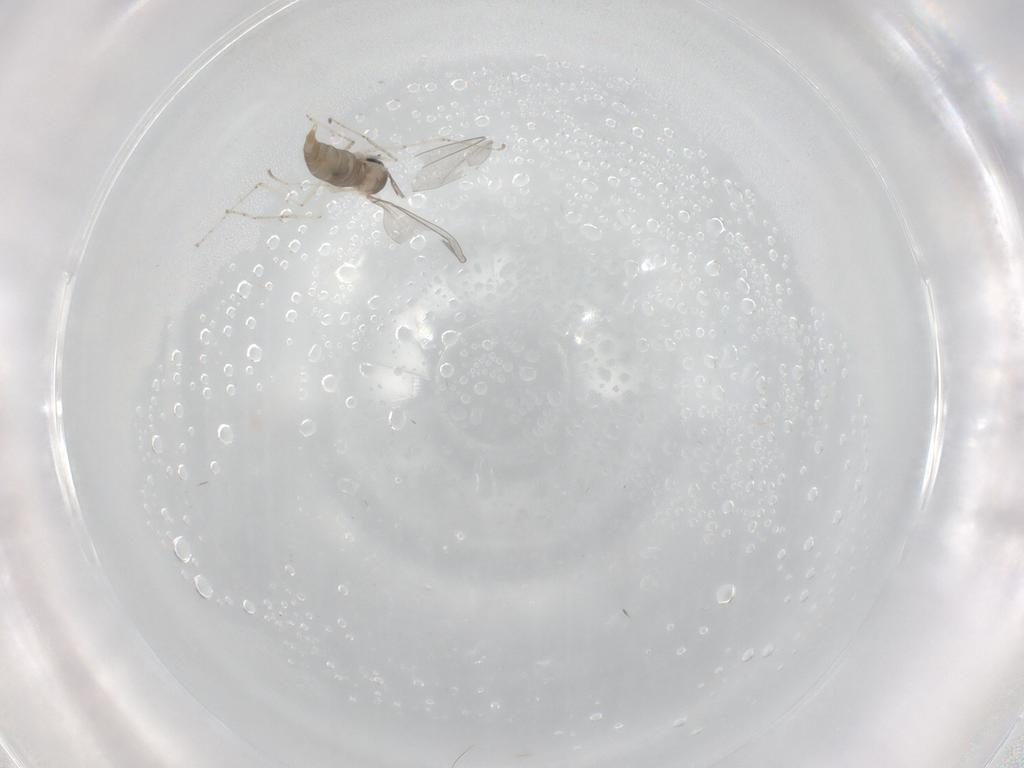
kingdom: Animalia
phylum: Arthropoda
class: Insecta
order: Diptera
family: Cecidomyiidae
